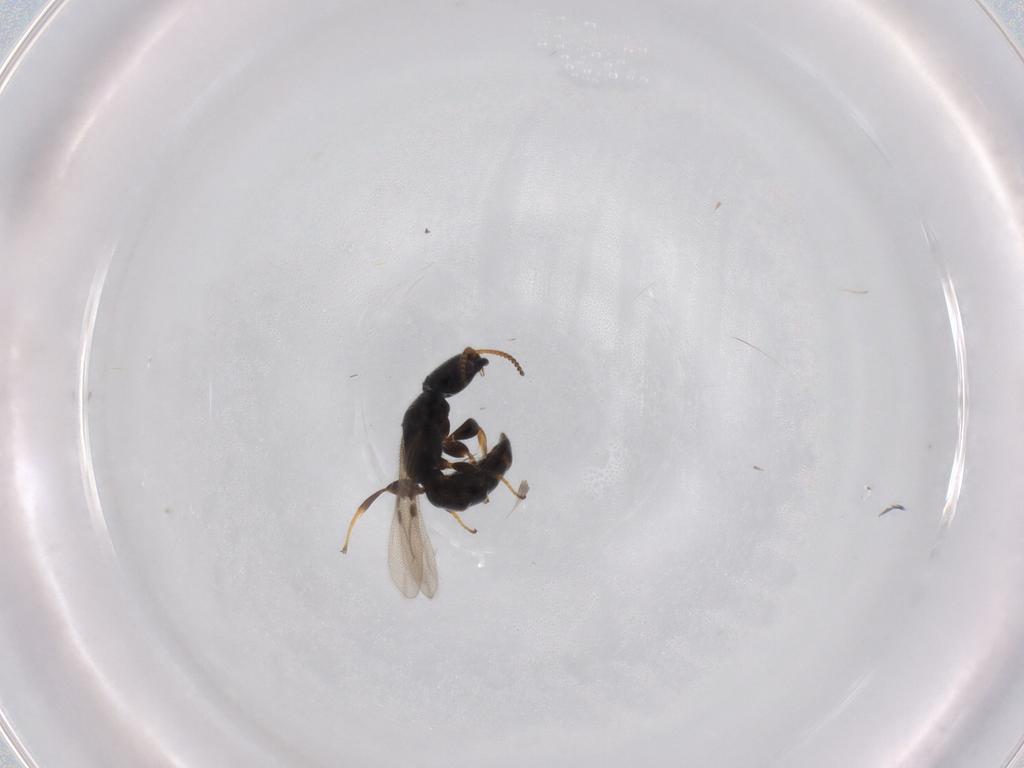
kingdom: Animalia
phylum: Arthropoda
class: Insecta
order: Hymenoptera
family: Bethylidae
